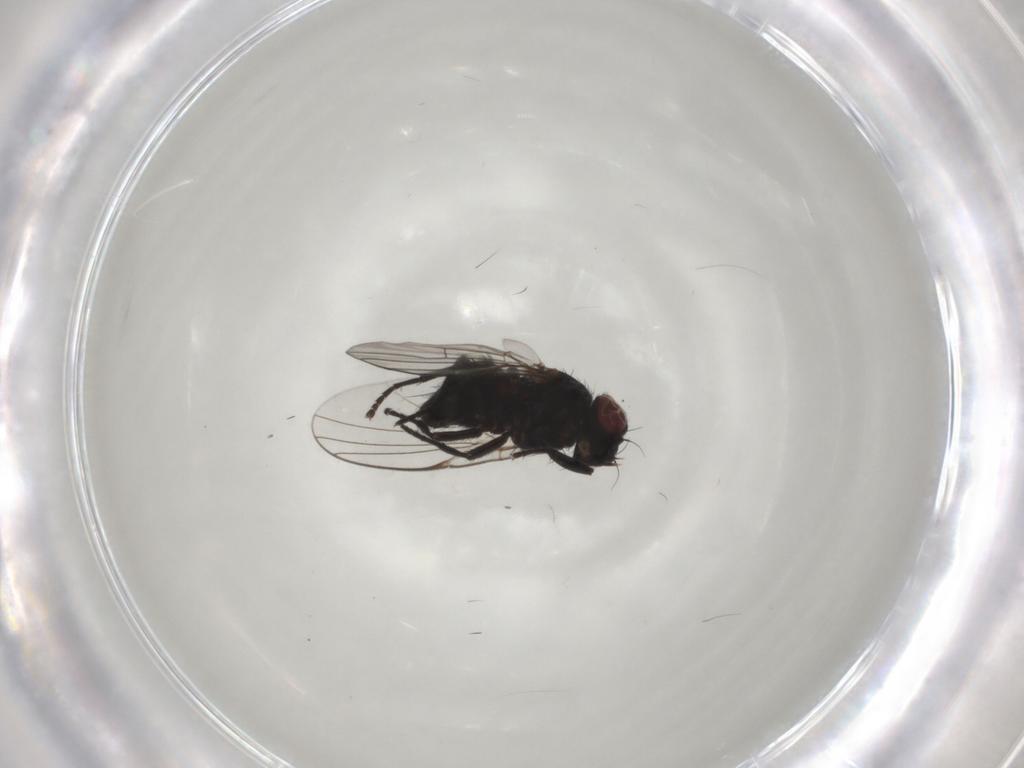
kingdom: Animalia
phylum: Arthropoda
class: Insecta
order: Diptera
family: Agromyzidae
